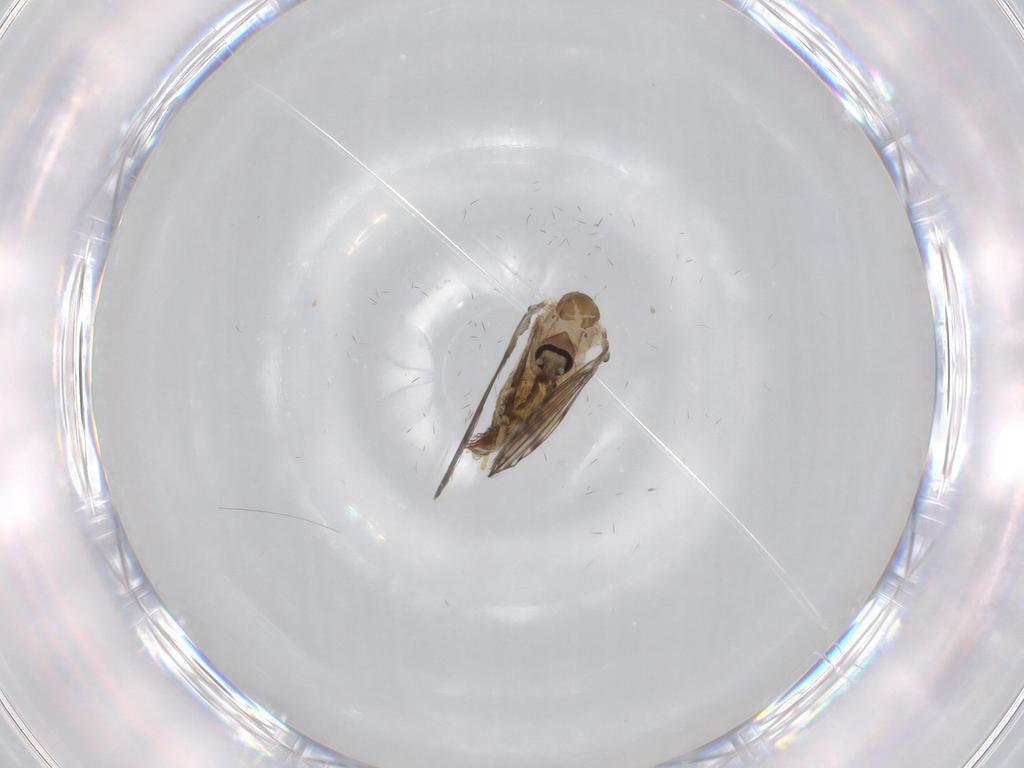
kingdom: Animalia
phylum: Arthropoda
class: Insecta
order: Diptera
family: Psychodidae
